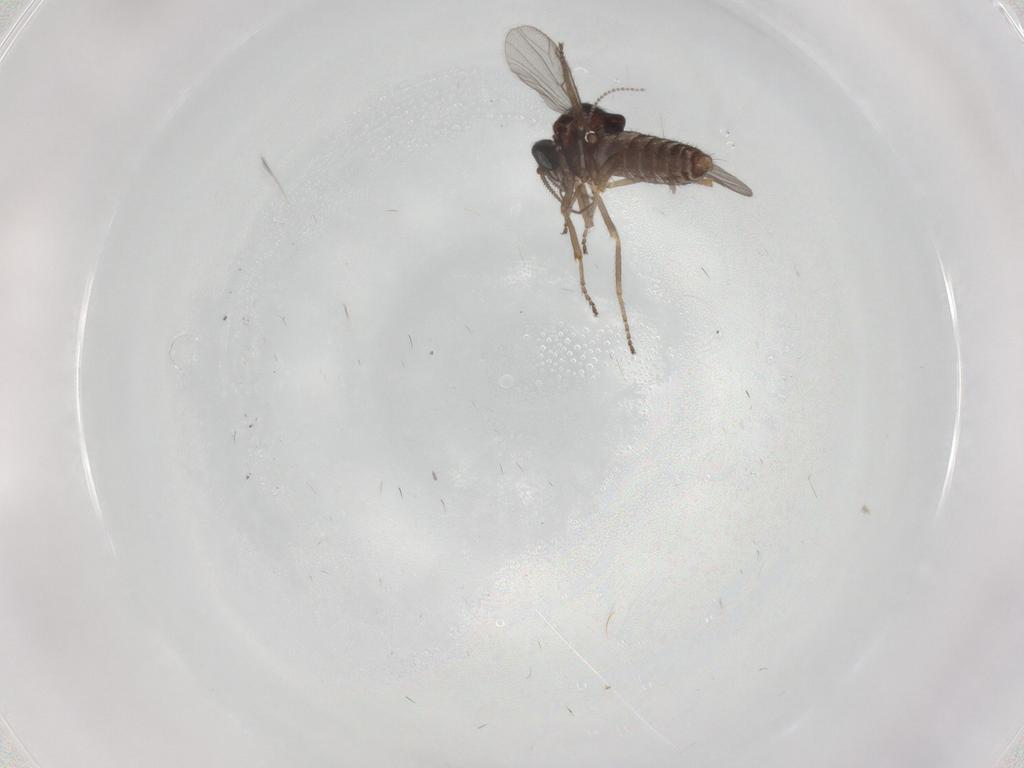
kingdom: Animalia
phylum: Arthropoda
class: Insecta
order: Diptera
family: Ceratopogonidae
